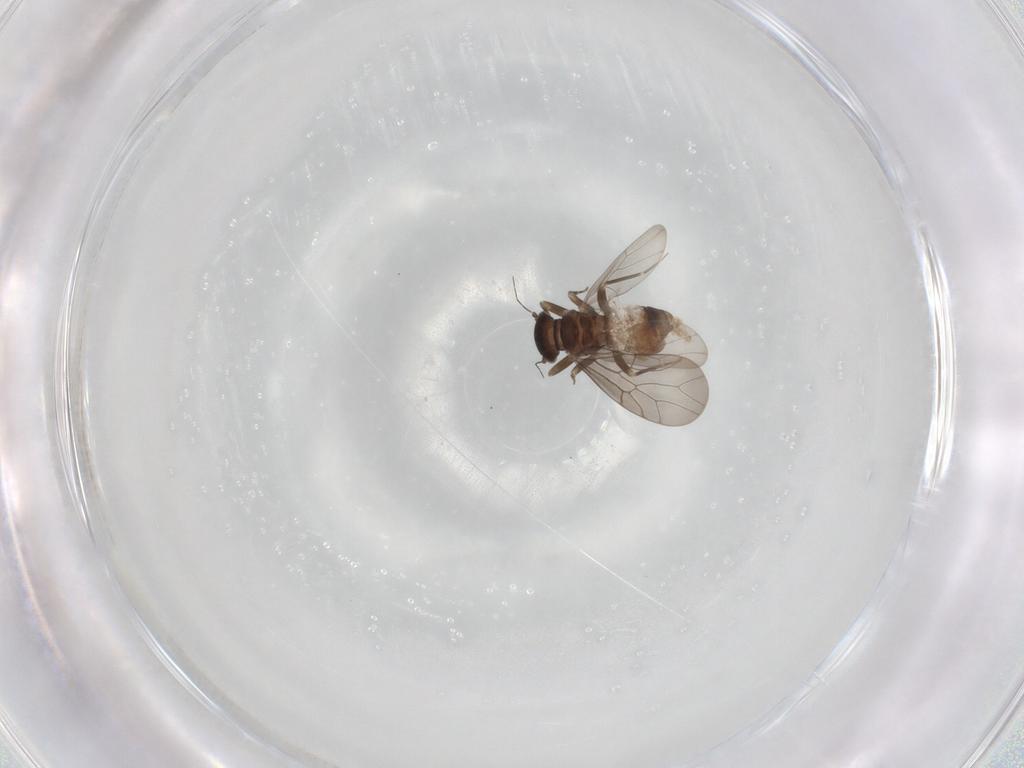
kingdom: Animalia
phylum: Arthropoda
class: Insecta
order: Psocodea
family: Lepidopsocidae
